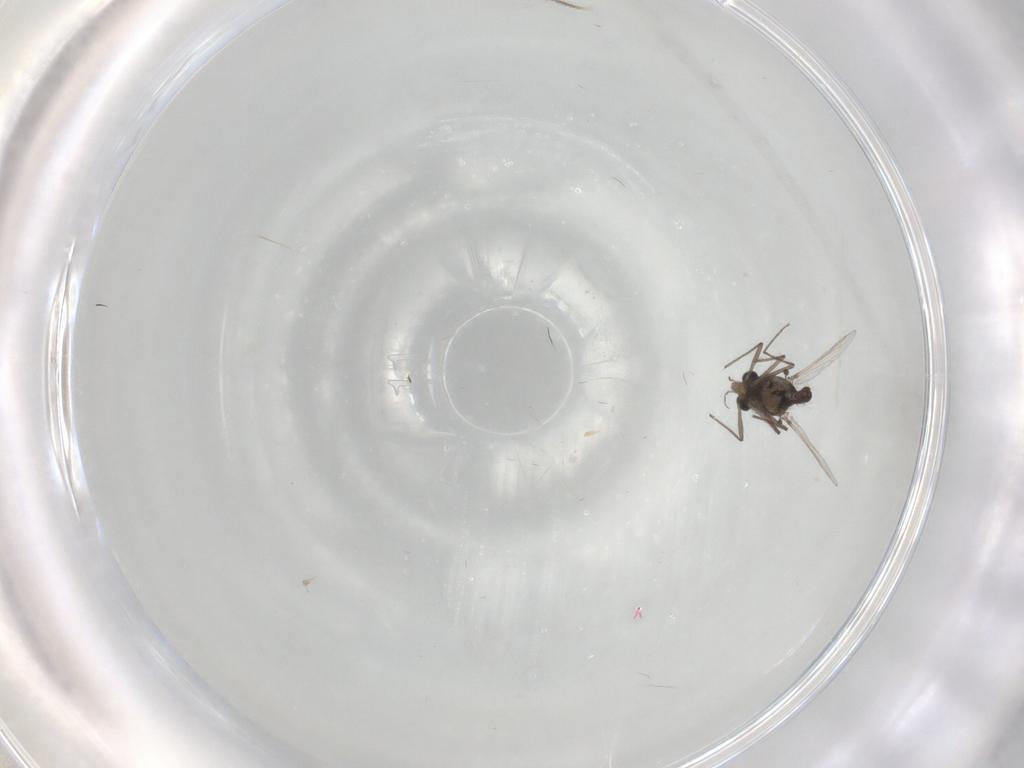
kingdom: Animalia
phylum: Arthropoda
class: Insecta
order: Diptera
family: Chironomidae
